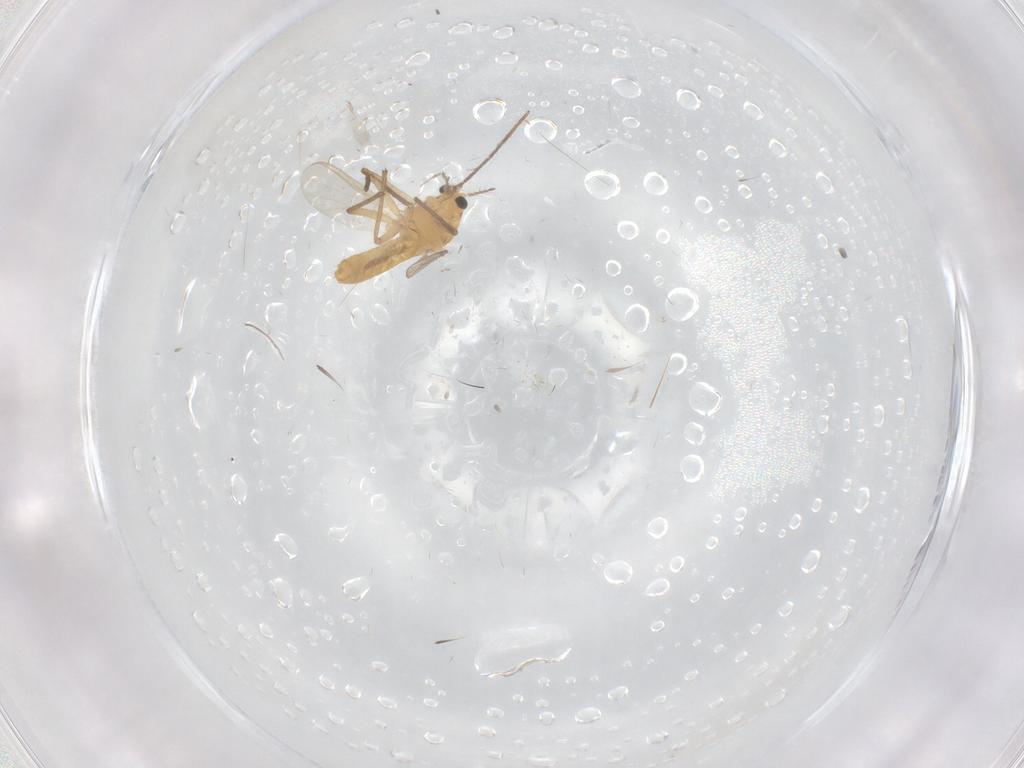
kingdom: Animalia
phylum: Arthropoda
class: Insecta
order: Diptera
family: Chironomidae
